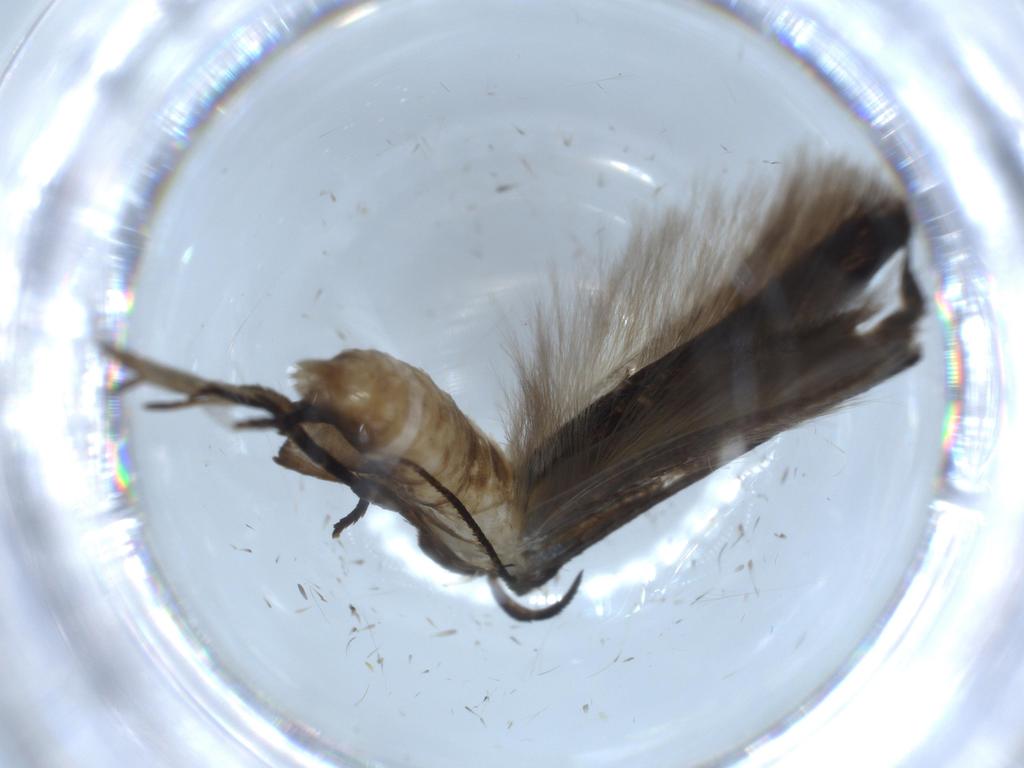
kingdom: Animalia
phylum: Arthropoda
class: Insecta
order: Lepidoptera
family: Cosmopterigidae
